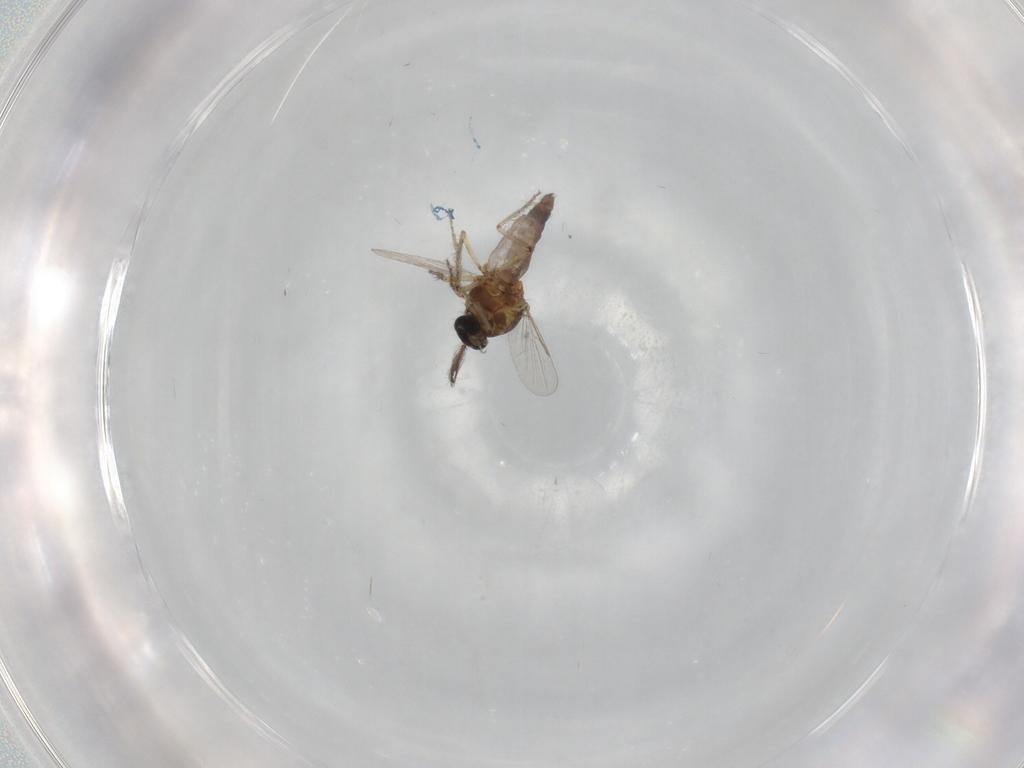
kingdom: Animalia
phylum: Arthropoda
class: Insecta
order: Diptera
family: Ceratopogonidae
